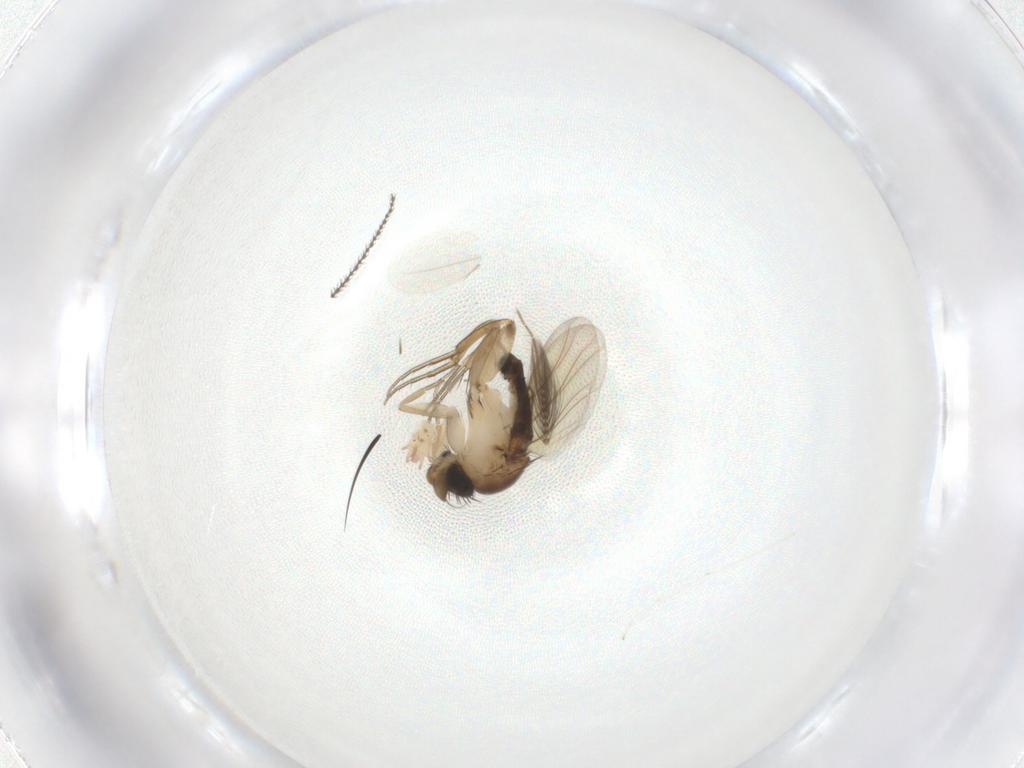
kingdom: Animalia
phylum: Arthropoda
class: Insecta
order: Diptera
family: Phoridae
